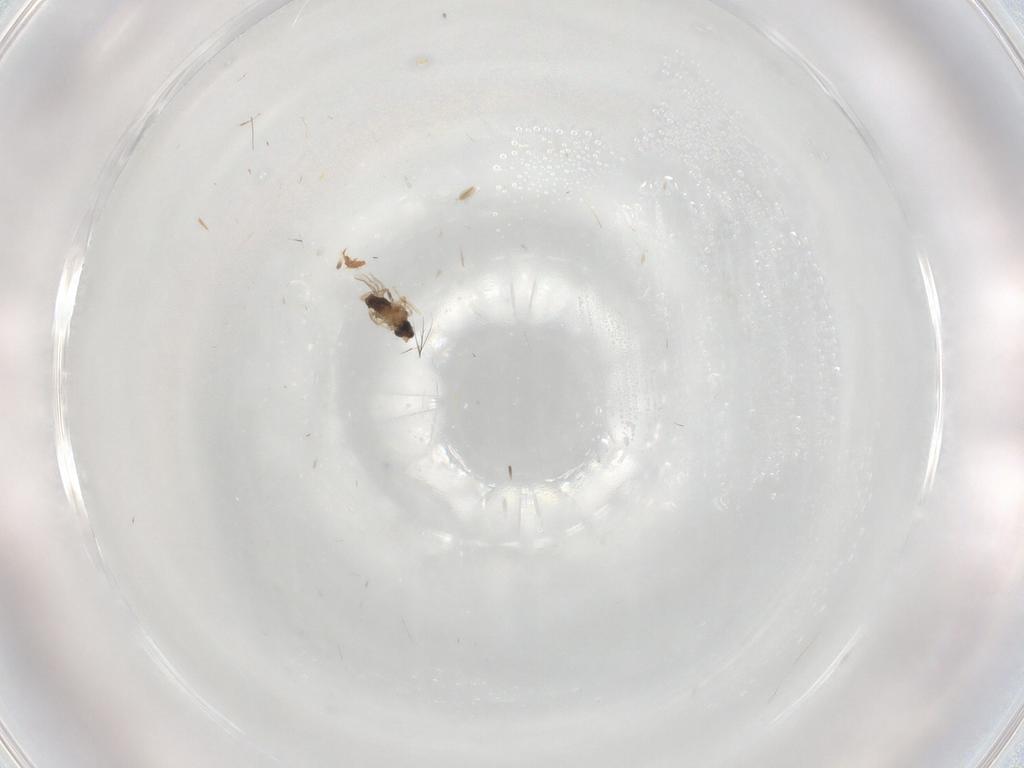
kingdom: Animalia
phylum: Arthropoda
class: Insecta
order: Diptera
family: Cecidomyiidae
